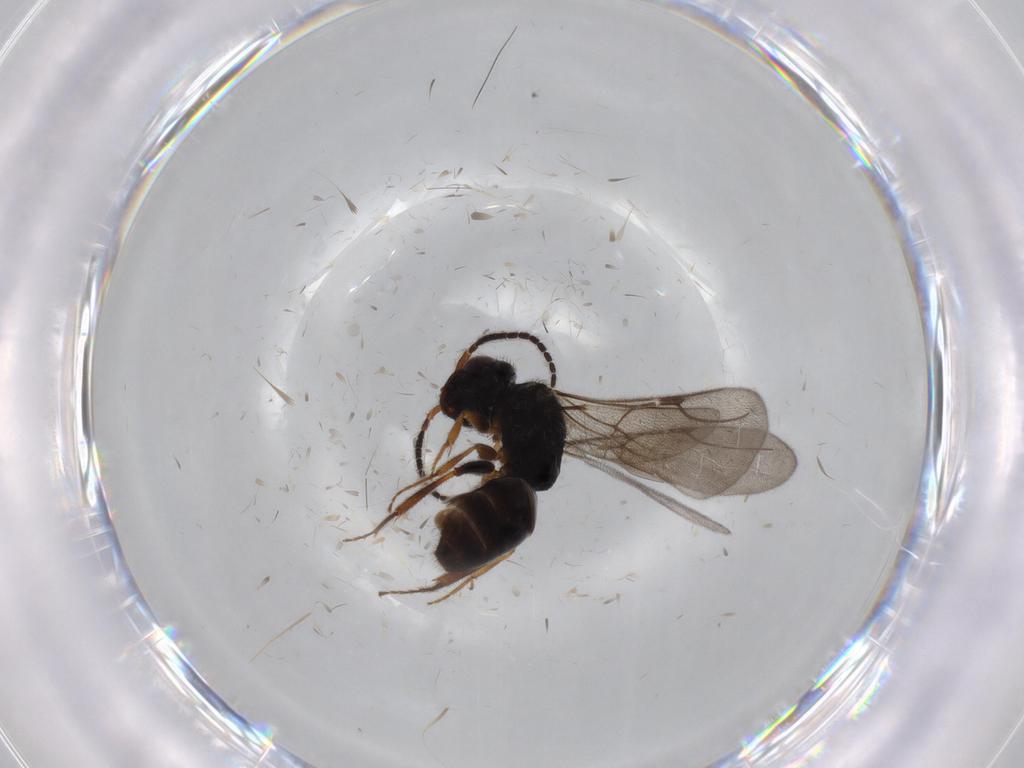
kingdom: Animalia
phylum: Arthropoda
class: Insecta
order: Hymenoptera
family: Bethylidae
